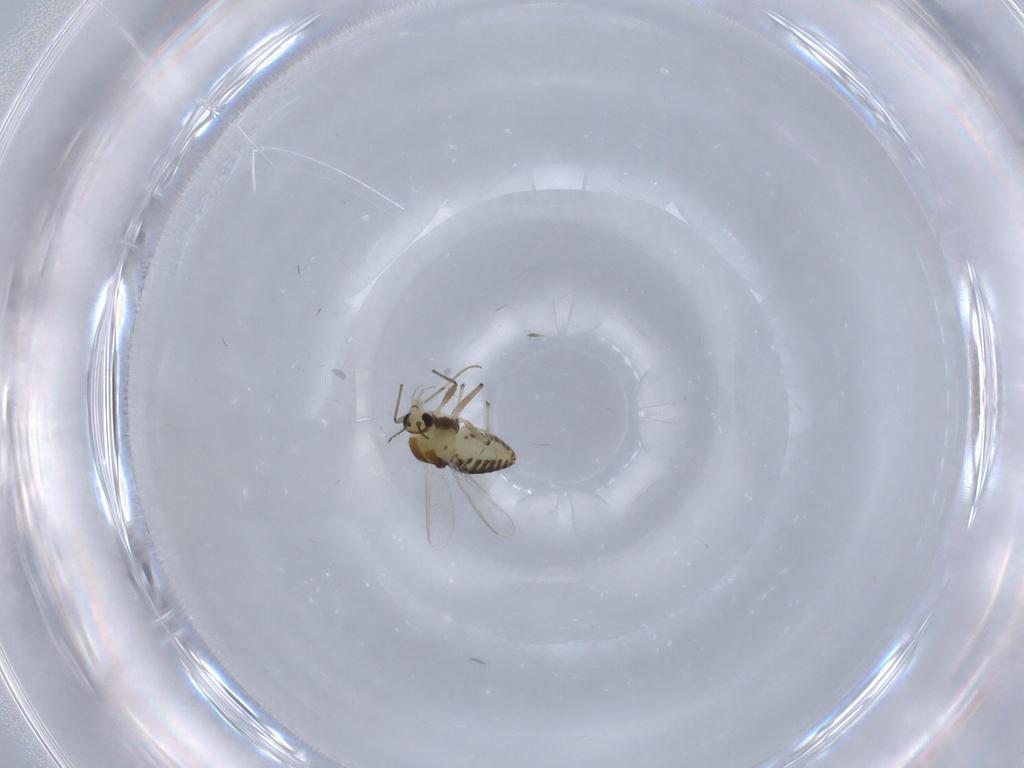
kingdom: Animalia
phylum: Arthropoda
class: Insecta
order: Diptera
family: Chironomidae
